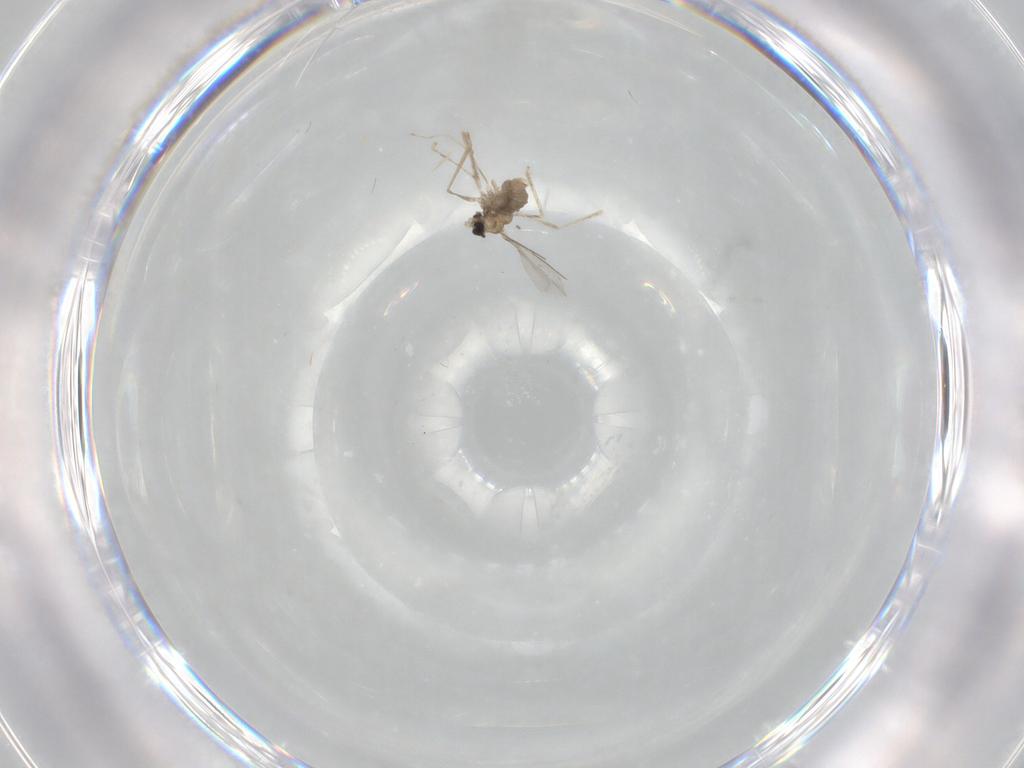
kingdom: Animalia
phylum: Arthropoda
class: Insecta
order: Diptera
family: Cecidomyiidae
